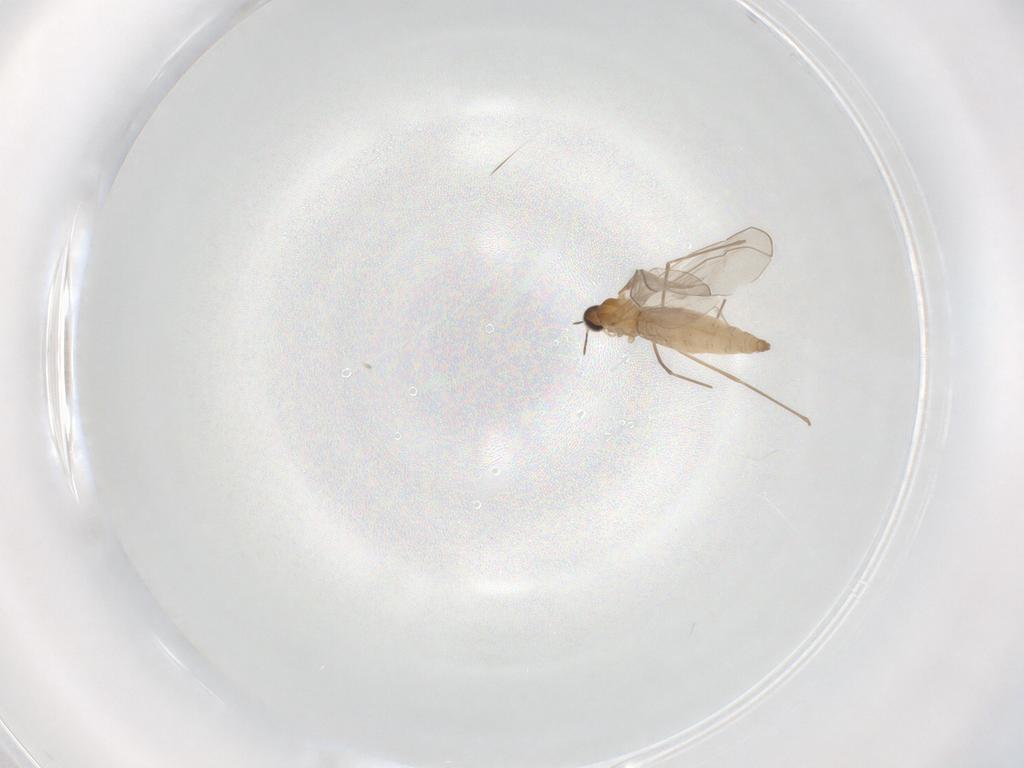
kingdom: Animalia
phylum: Arthropoda
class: Insecta
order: Diptera
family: Cecidomyiidae
